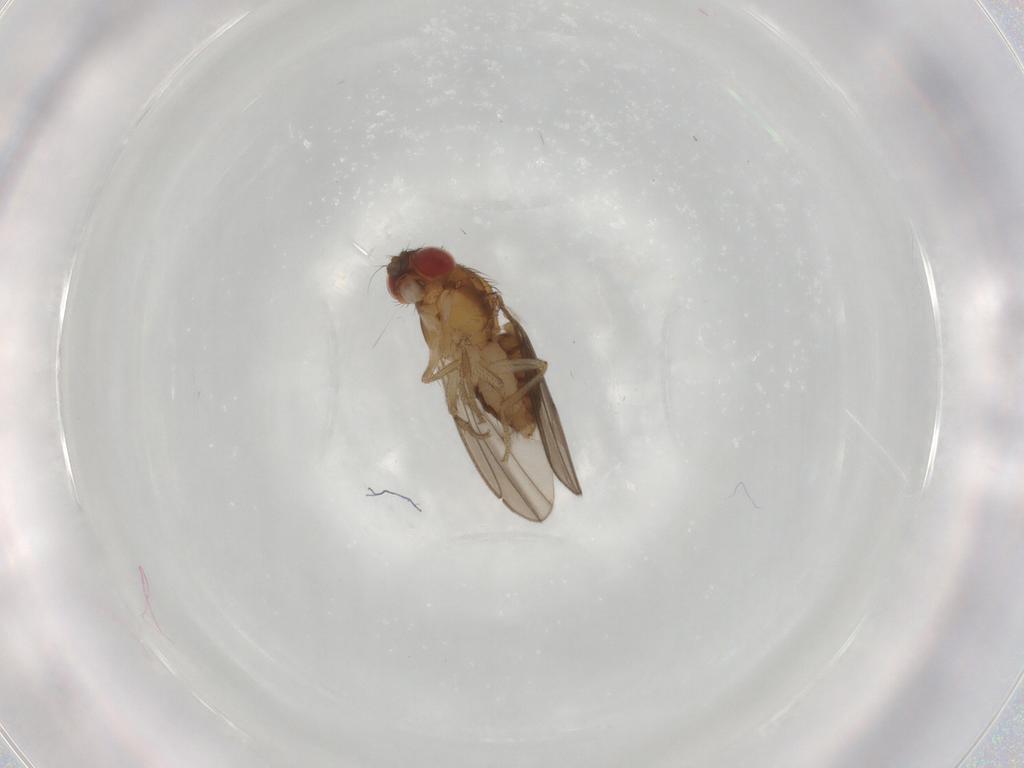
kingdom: Animalia
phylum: Arthropoda
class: Insecta
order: Diptera
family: Drosophilidae
